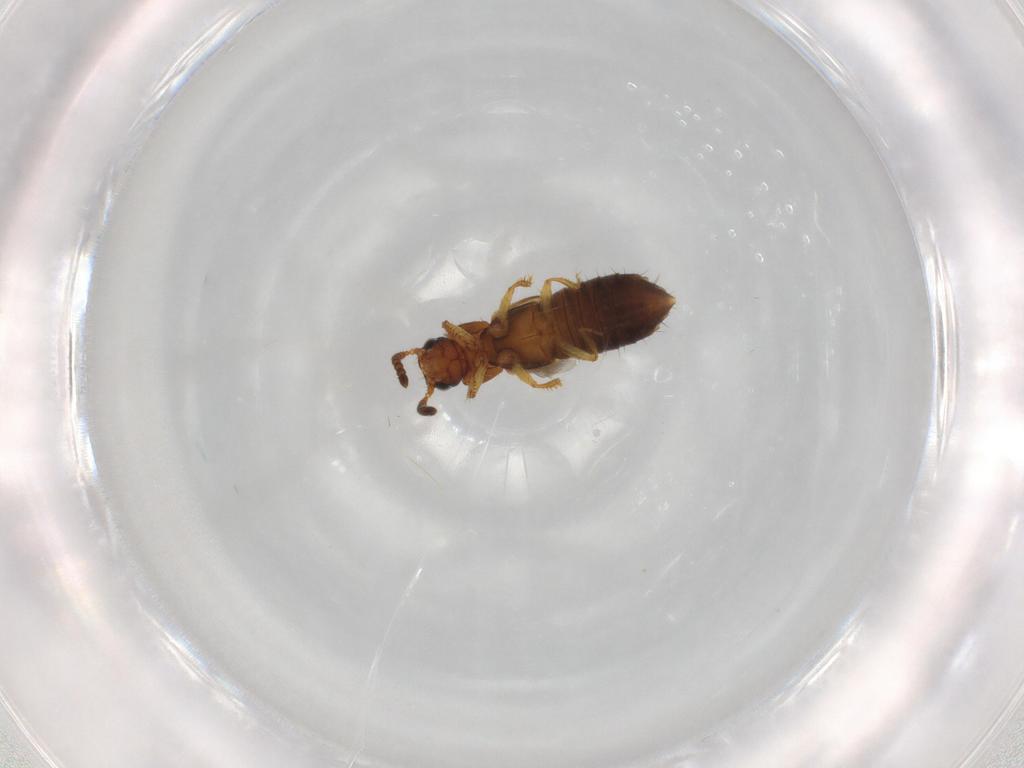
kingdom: Animalia
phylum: Arthropoda
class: Insecta
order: Coleoptera
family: Staphylinidae
